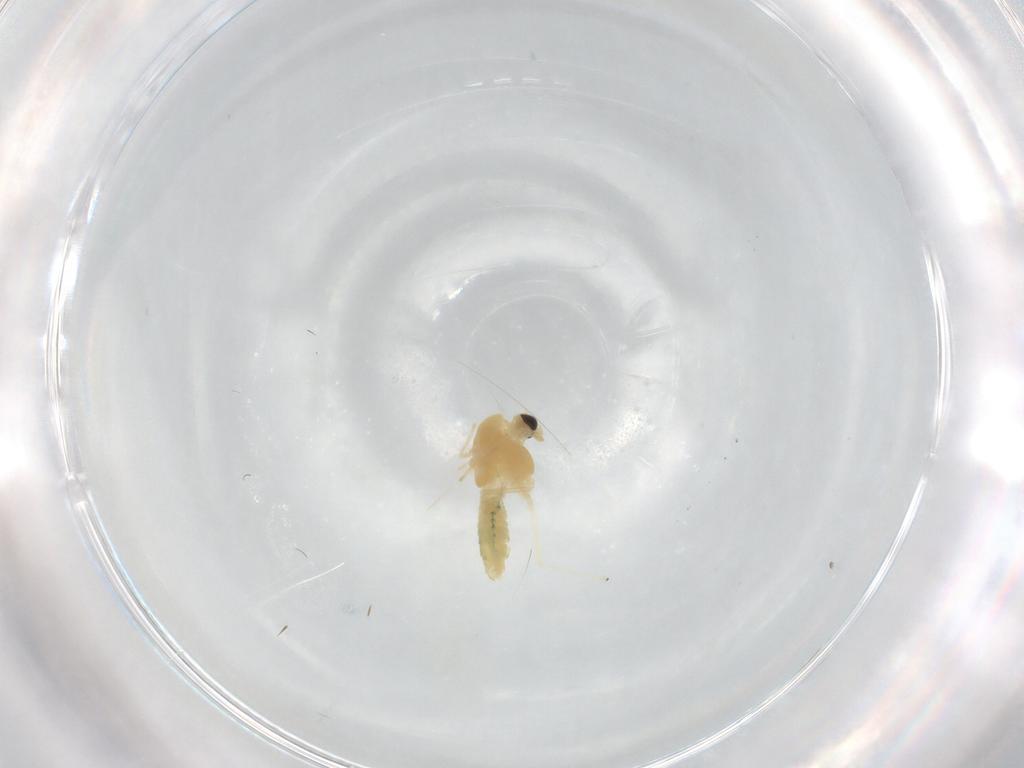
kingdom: Animalia
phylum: Arthropoda
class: Insecta
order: Diptera
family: Chironomidae
